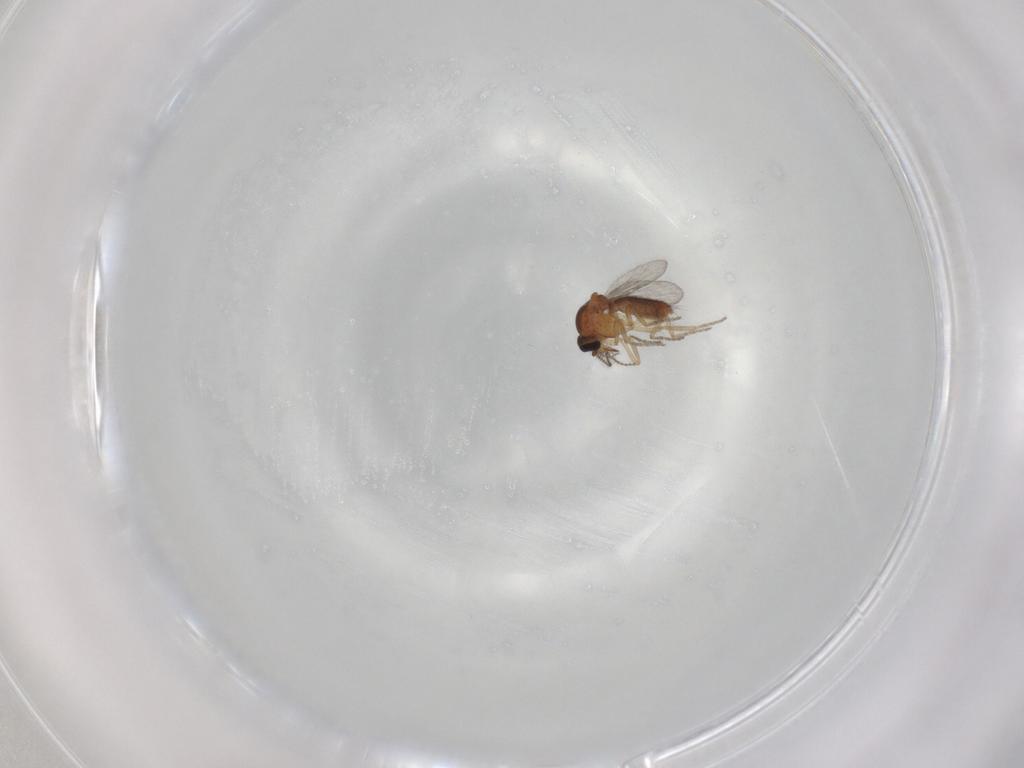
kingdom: Animalia
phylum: Arthropoda
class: Insecta
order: Diptera
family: Ceratopogonidae
